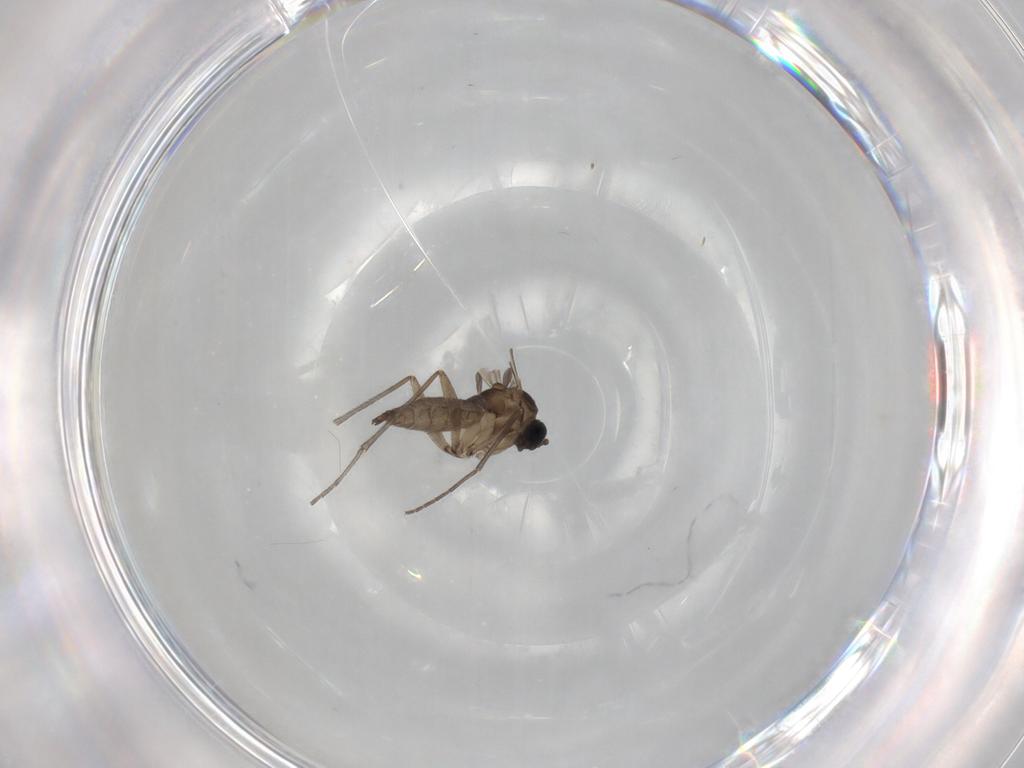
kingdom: Animalia
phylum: Arthropoda
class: Insecta
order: Diptera
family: Sciaridae
